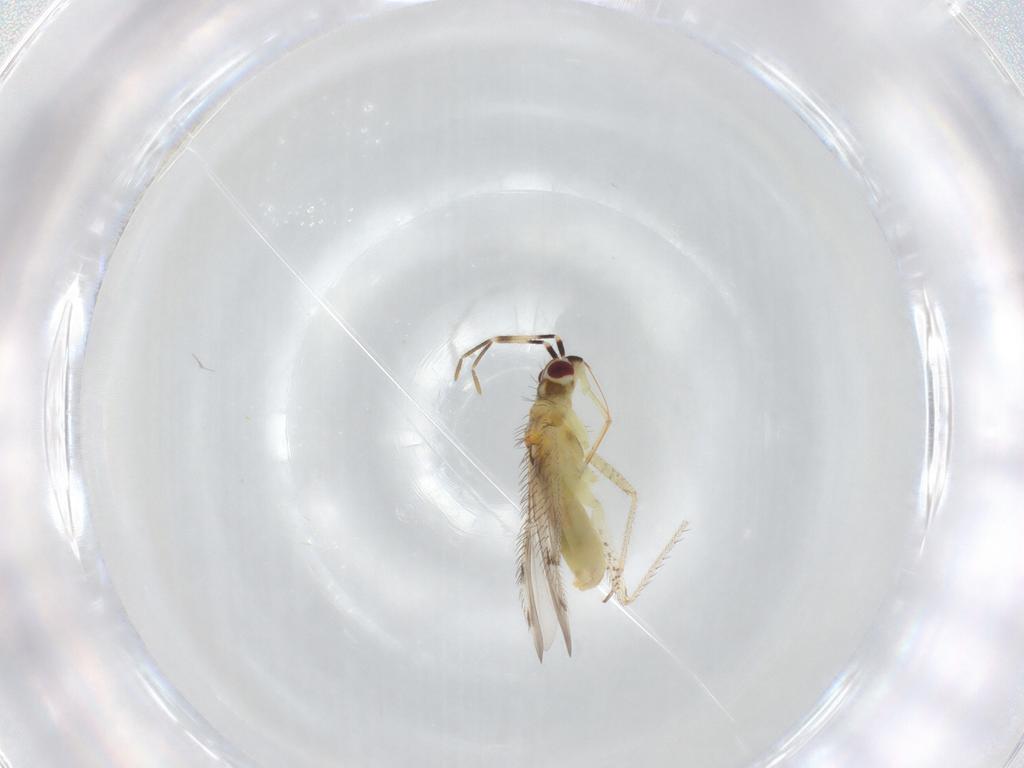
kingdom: Animalia
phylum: Arthropoda
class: Insecta
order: Hemiptera
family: Miridae
